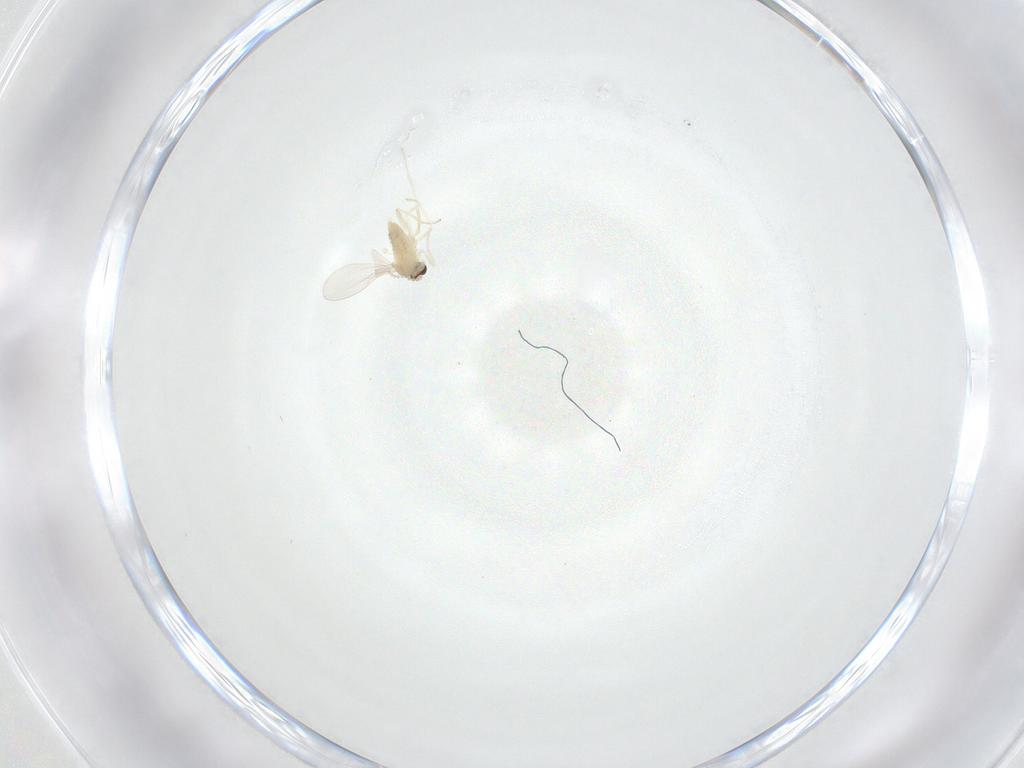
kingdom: Animalia
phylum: Arthropoda
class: Insecta
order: Diptera
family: Cecidomyiidae
